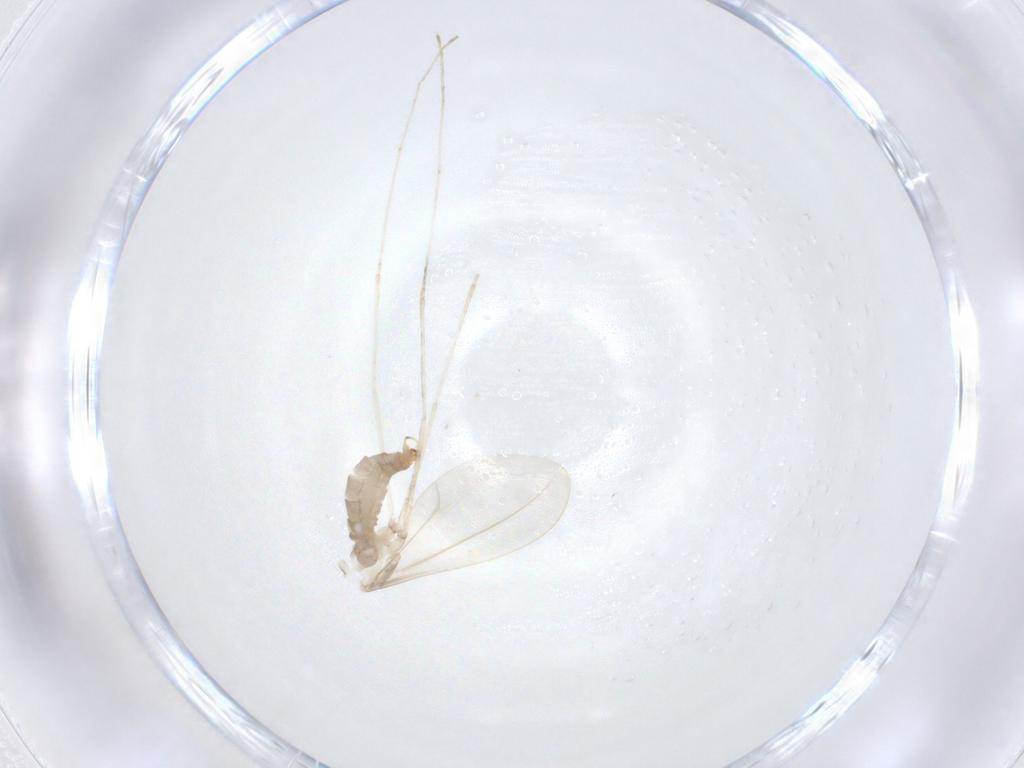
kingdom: Animalia
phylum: Arthropoda
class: Insecta
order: Diptera
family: Cecidomyiidae
